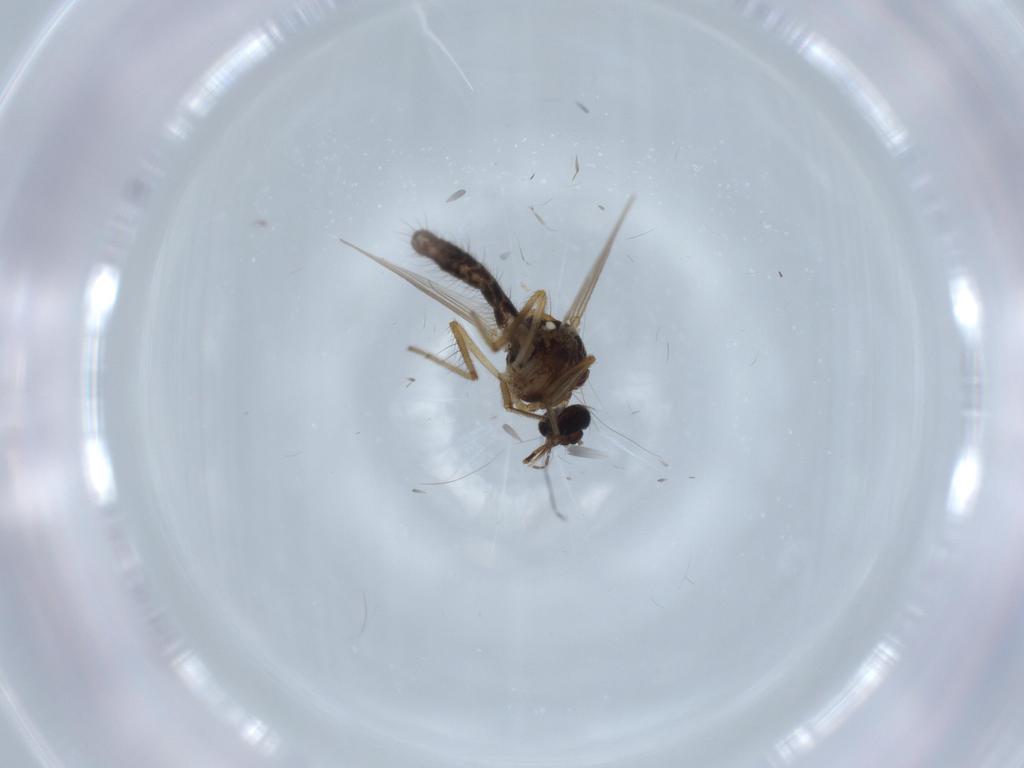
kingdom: Animalia
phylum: Arthropoda
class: Insecta
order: Diptera
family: Ceratopogonidae
